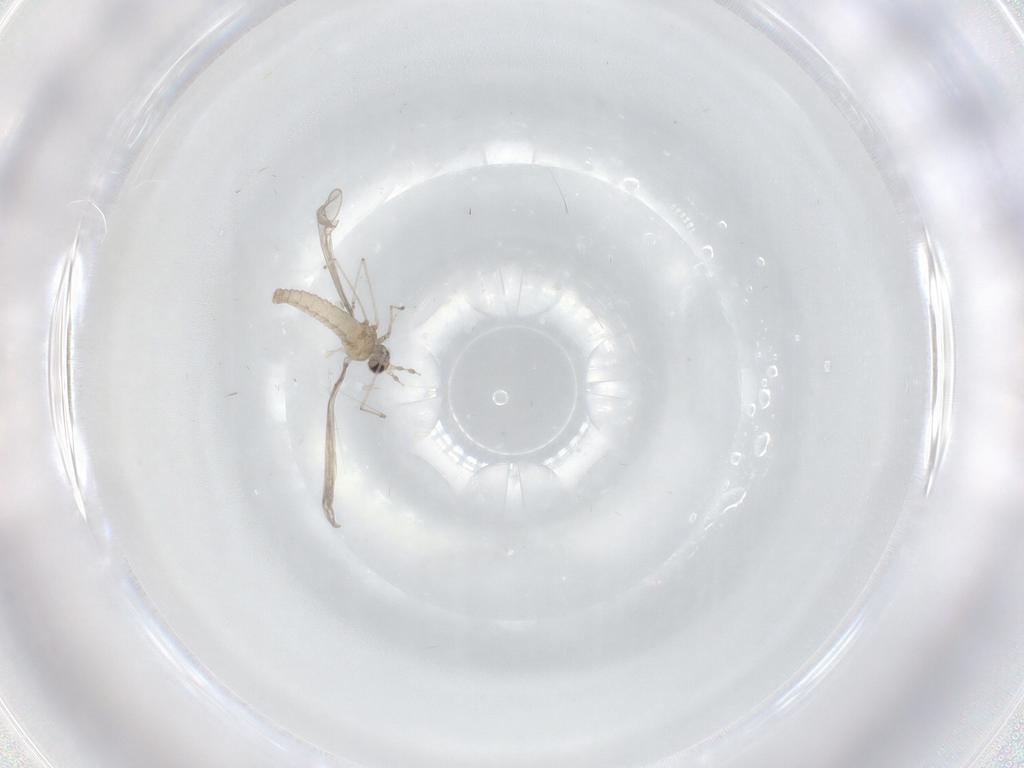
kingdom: Animalia
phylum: Arthropoda
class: Insecta
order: Diptera
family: Cecidomyiidae
